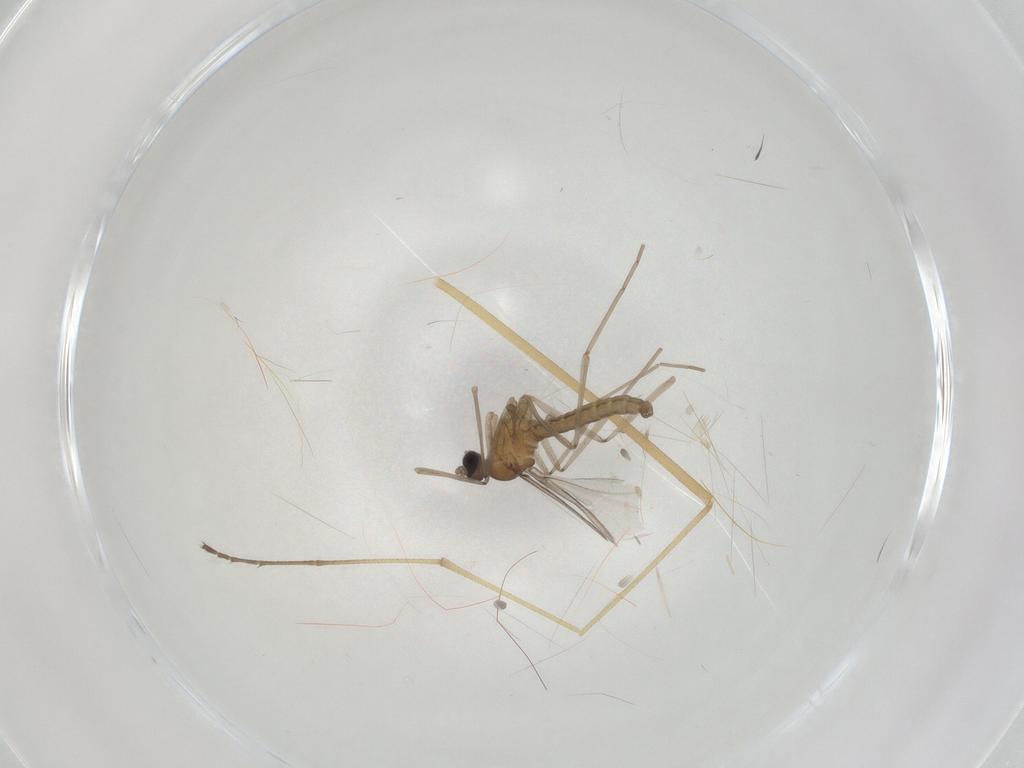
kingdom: Animalia
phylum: Arthropoda
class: Insecta
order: Diptera
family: Cecidomyiidae
